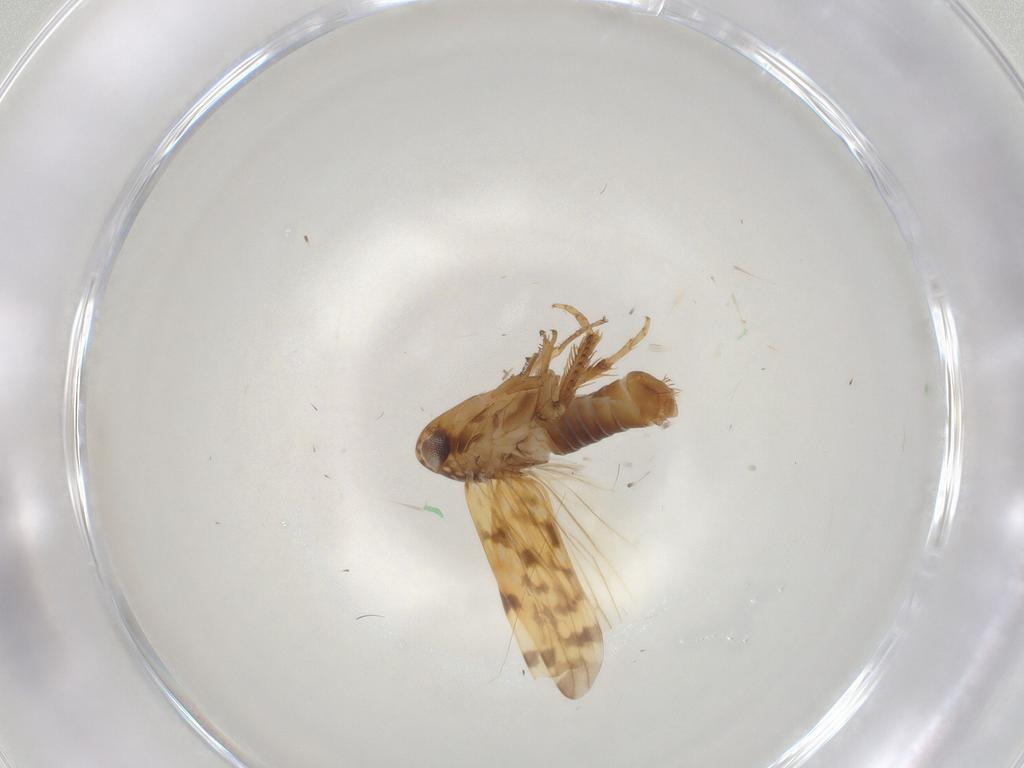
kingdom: Animalia
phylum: Arthropoda
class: Insecta
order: Hemiptera
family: Cicadellidae
